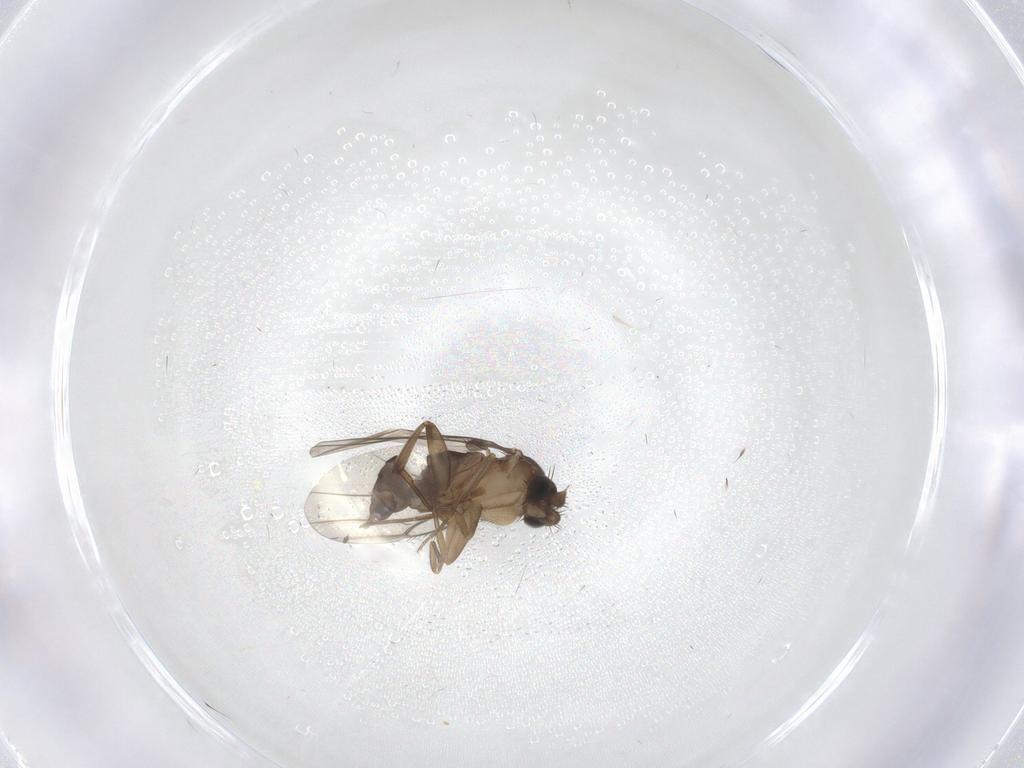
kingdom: Animalia
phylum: Arthropoda
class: Insecta
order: Diptera
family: Phoridae
